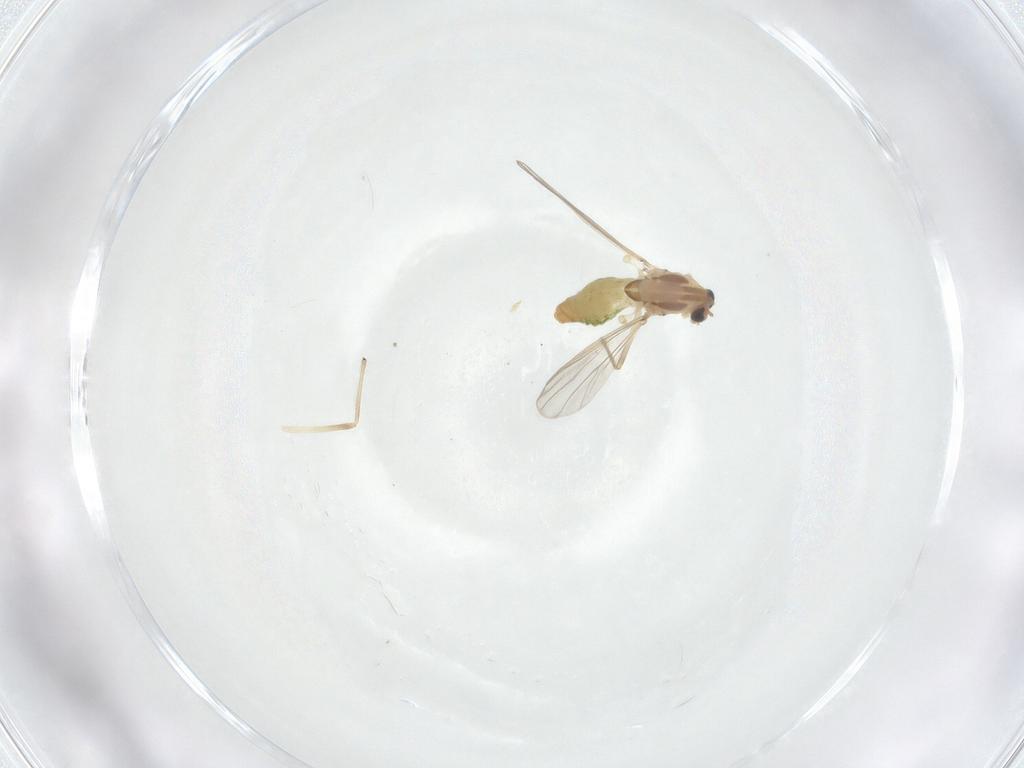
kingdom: Animalia
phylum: Arthropoda
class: Insecta
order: Diptera
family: Chironomidae
